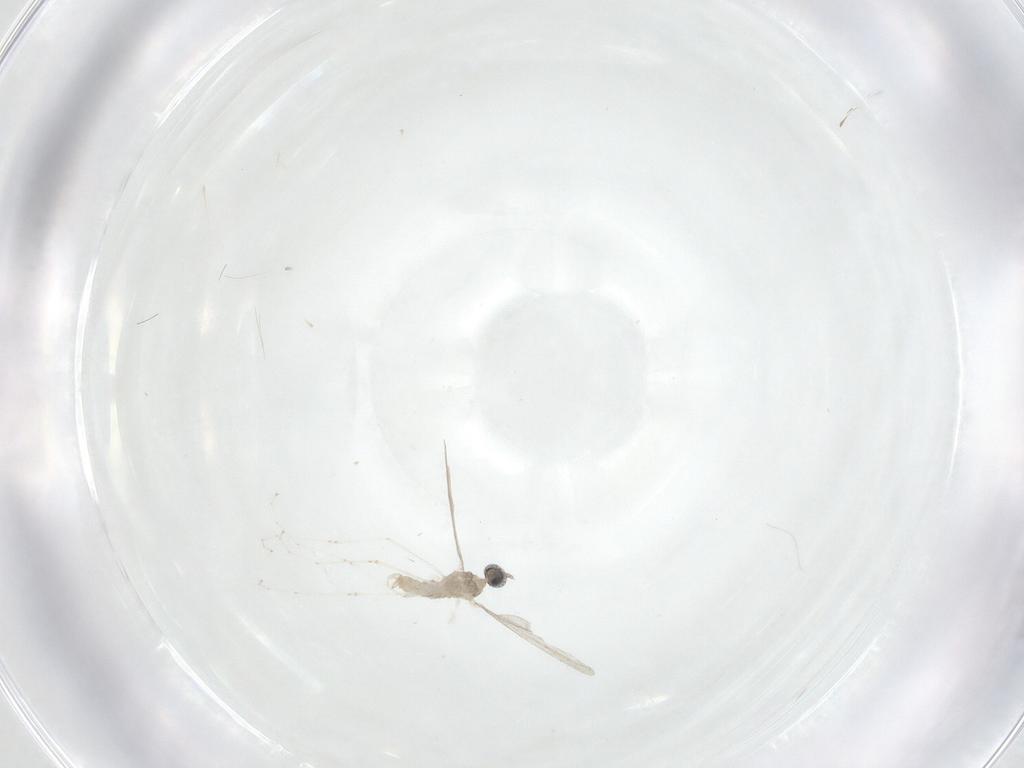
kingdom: Animalia
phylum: Arthropoda
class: Insecta
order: Diptera
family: Cecidomyiidae
